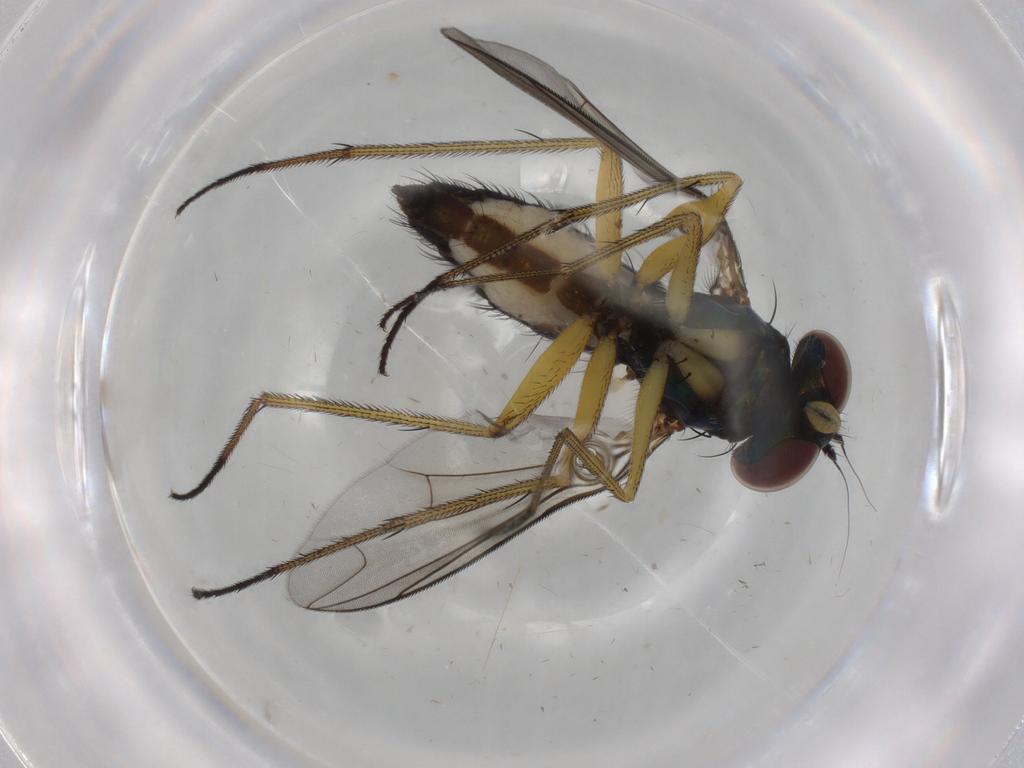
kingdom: Animalia
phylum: Arthropoda
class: Insecta
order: Diptera
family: Dolichopodidae
